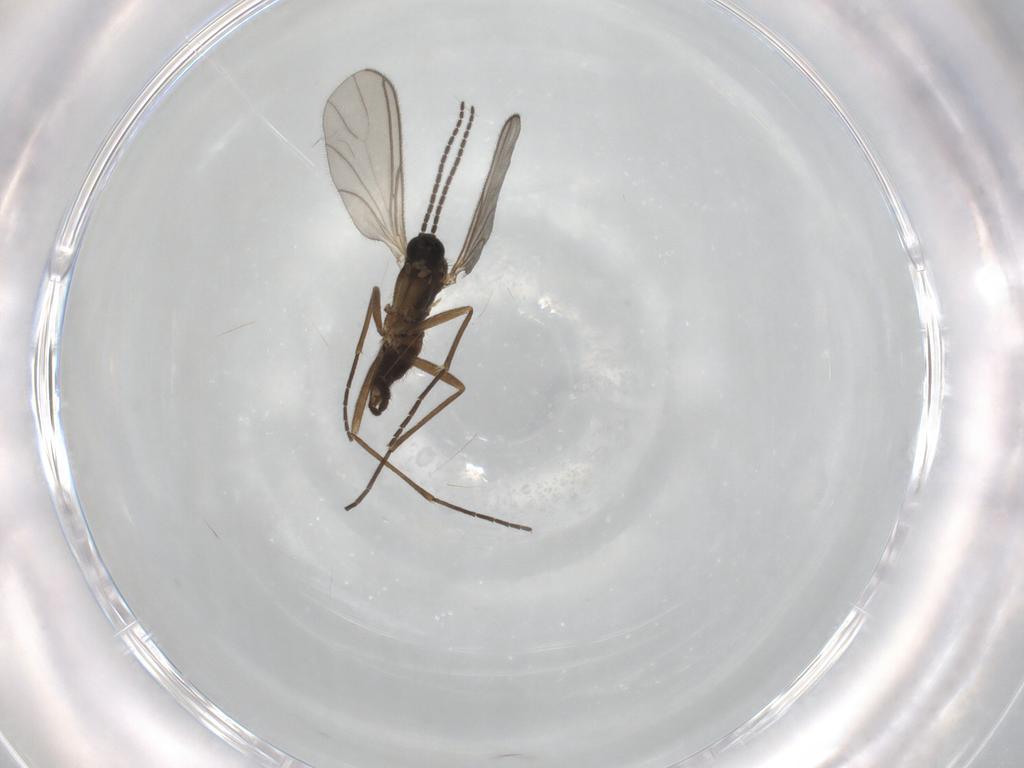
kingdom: Animalia
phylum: Arthropoda
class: Insecta
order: Diptera
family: Sciaridae
